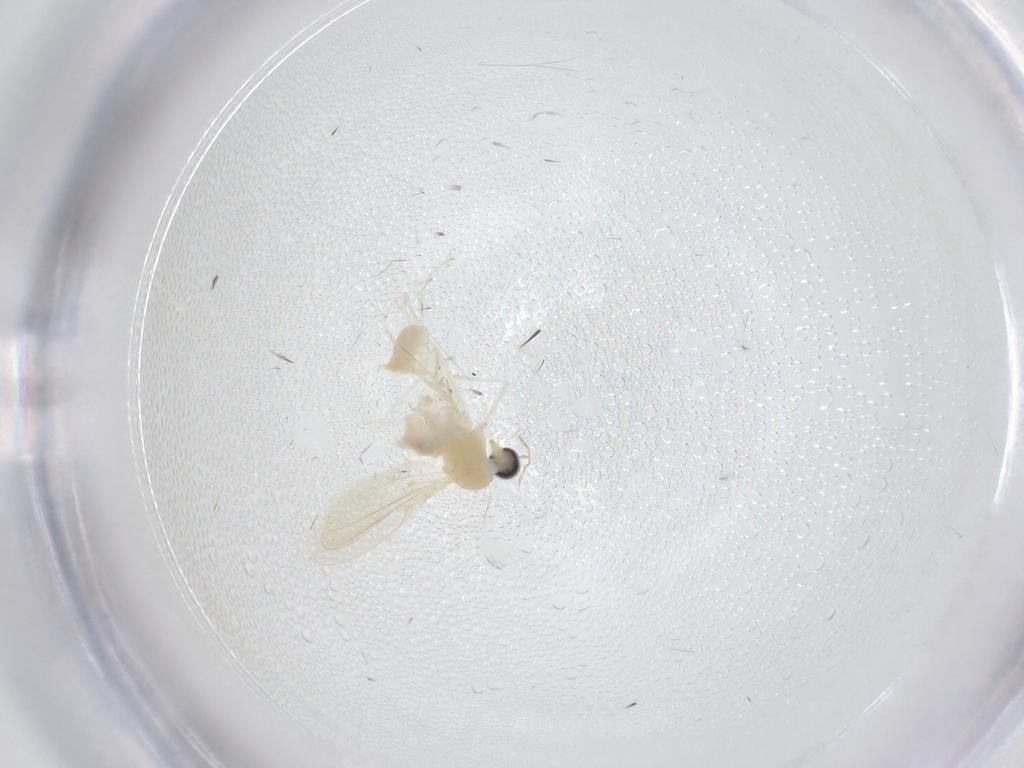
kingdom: Animalia
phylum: Arthropoda
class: Insecta
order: Diptera
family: Cecidomyiidae
